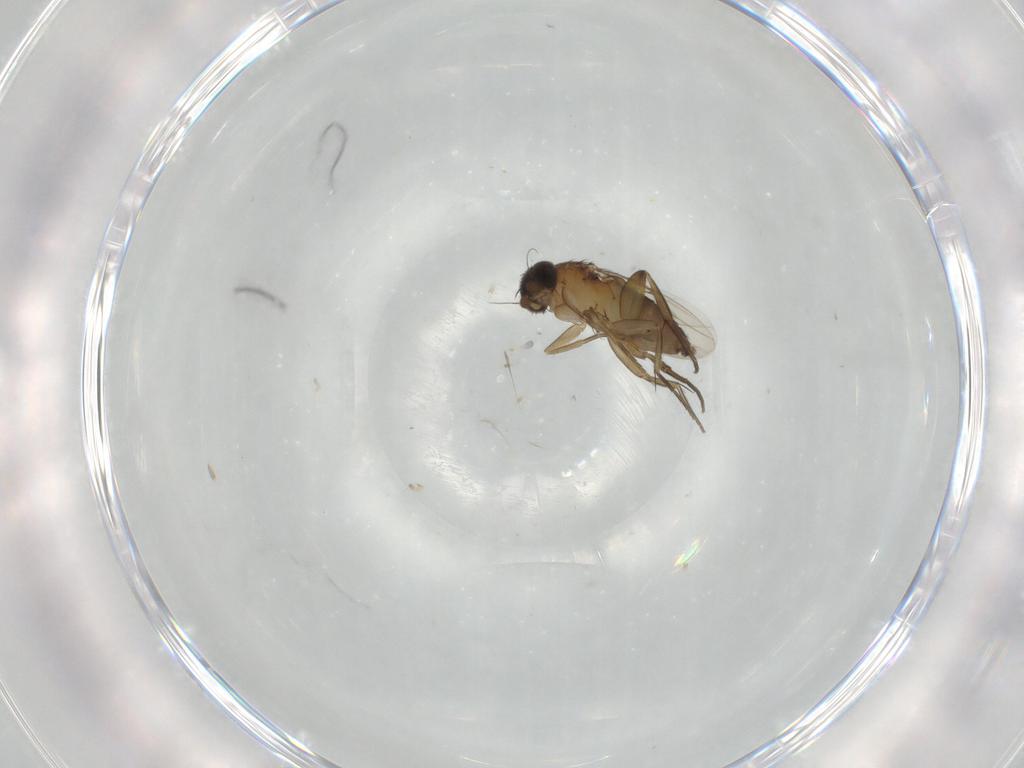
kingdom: Animalia
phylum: Arthropoda
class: Insecta
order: Diptera
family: Phoridae
